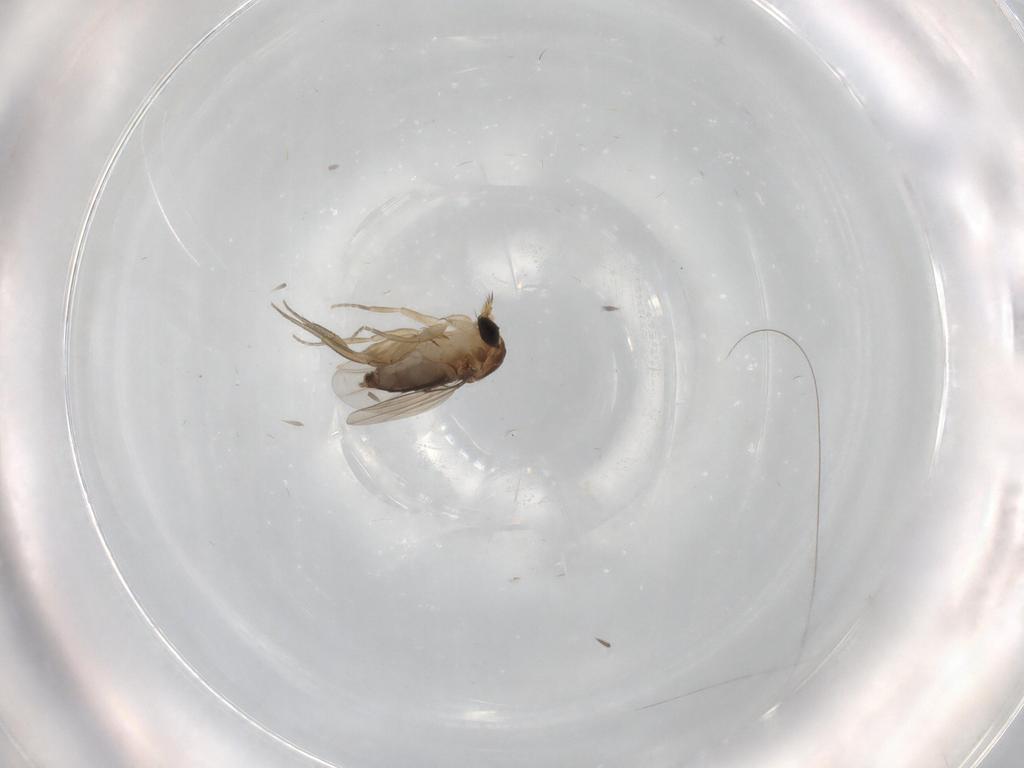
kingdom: Animalia
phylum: Arthropoda
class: Insecta
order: Diptera
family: Phoridae
